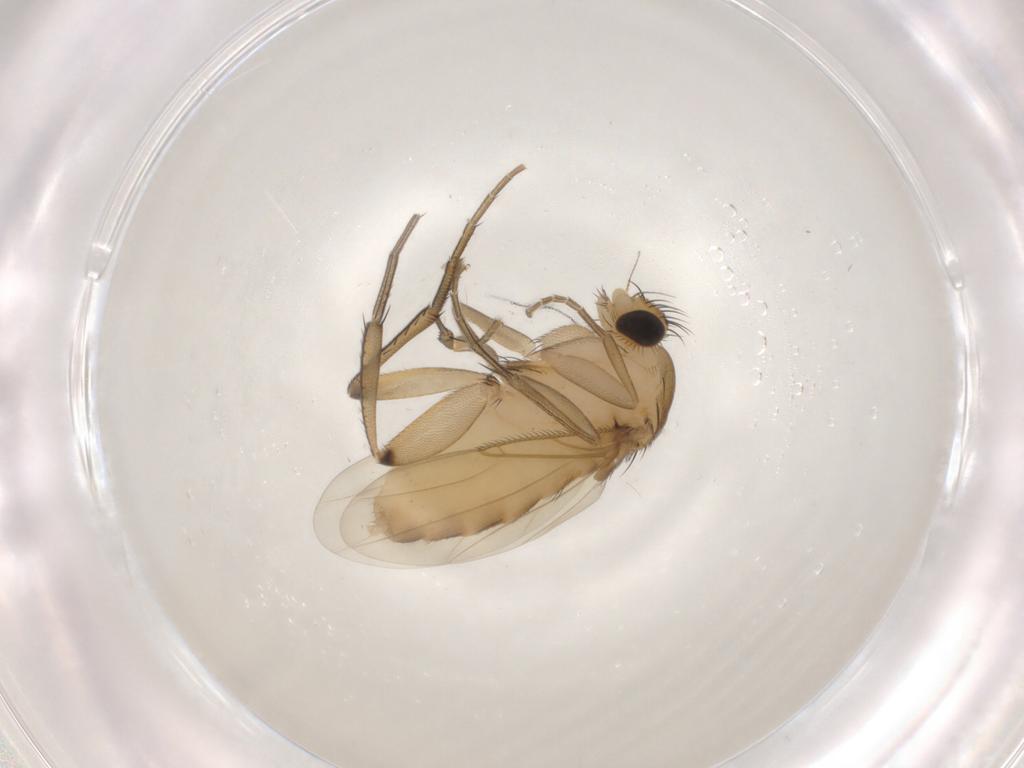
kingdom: Animalia
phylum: Arthropoda
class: Insecta
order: Diptera
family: Phoridae
